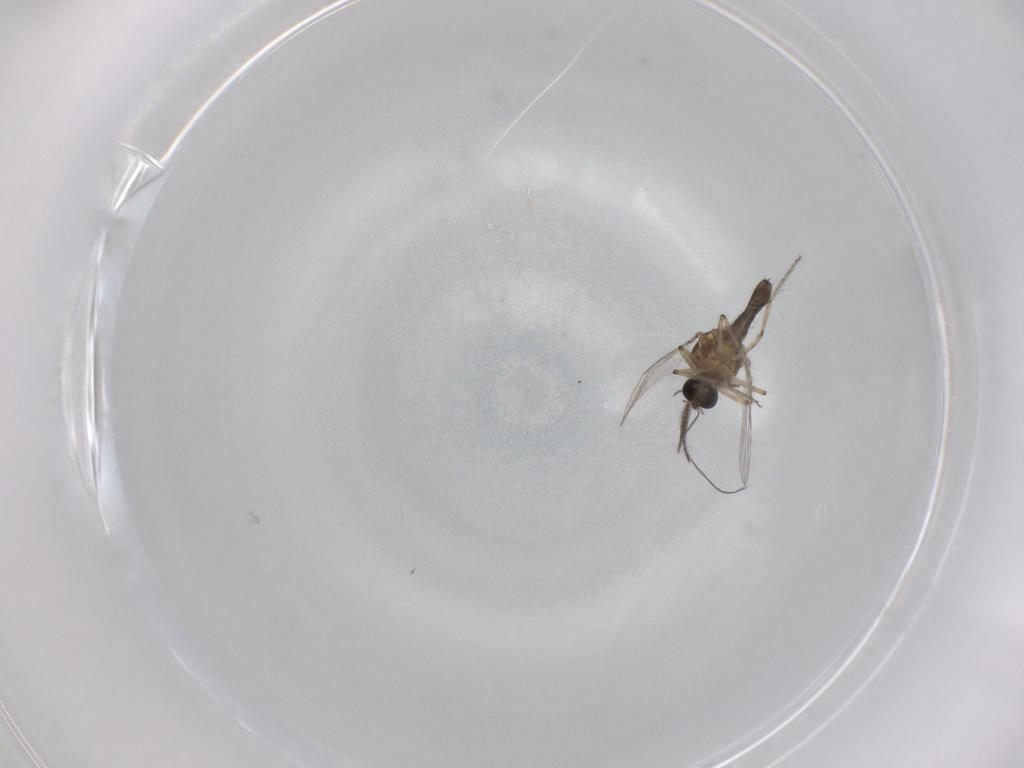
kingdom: Animalia
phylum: Arthropoda
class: Insecta
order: Diptera
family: Ceratopogonidae
